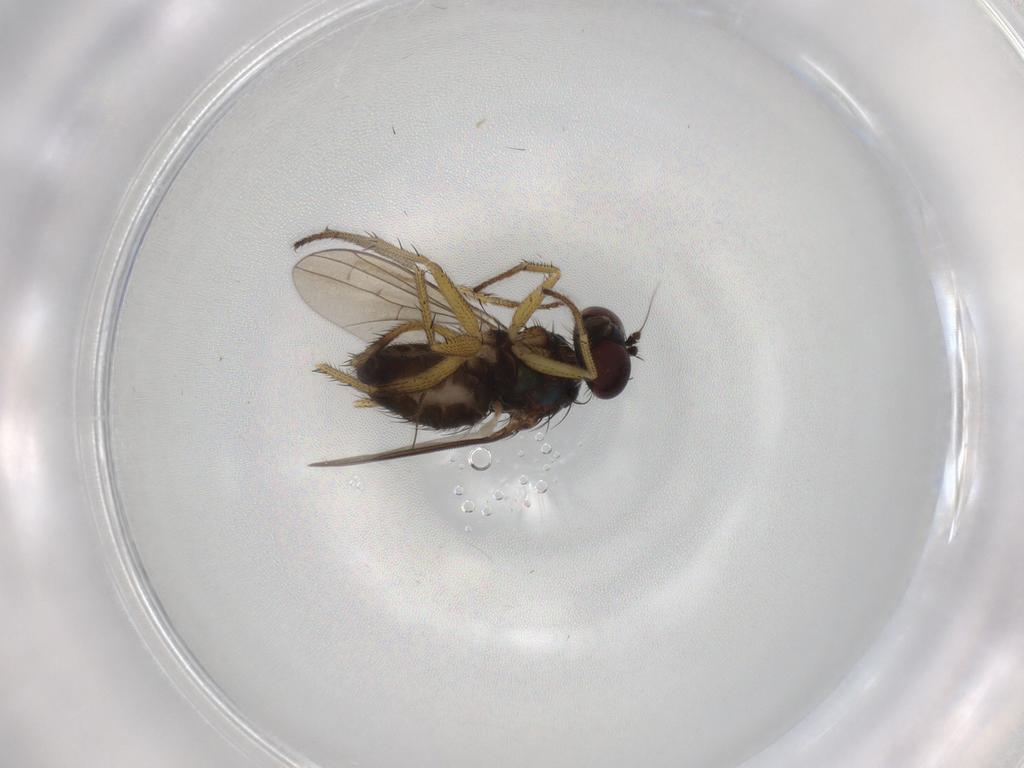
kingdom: Animalia
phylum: Arthropoda
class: Insecta
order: Diptera
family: Dolichopodidae
